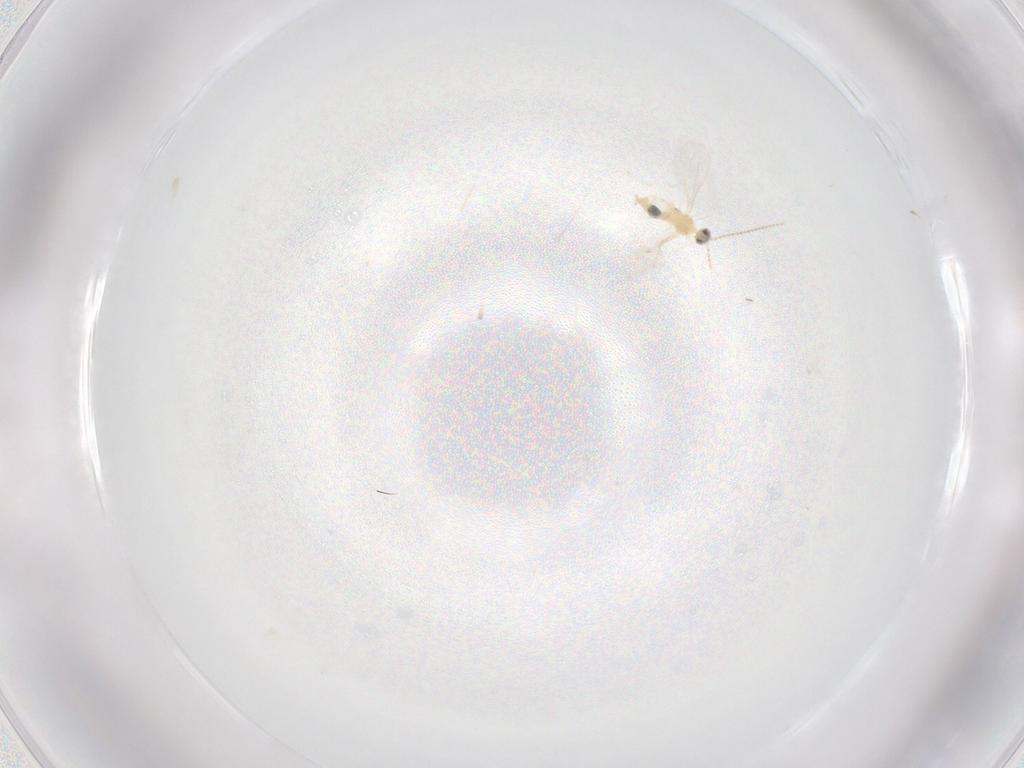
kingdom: Animalia
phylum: Arthropoda
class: Insecta
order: Diptera
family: Cecidomyiidae
